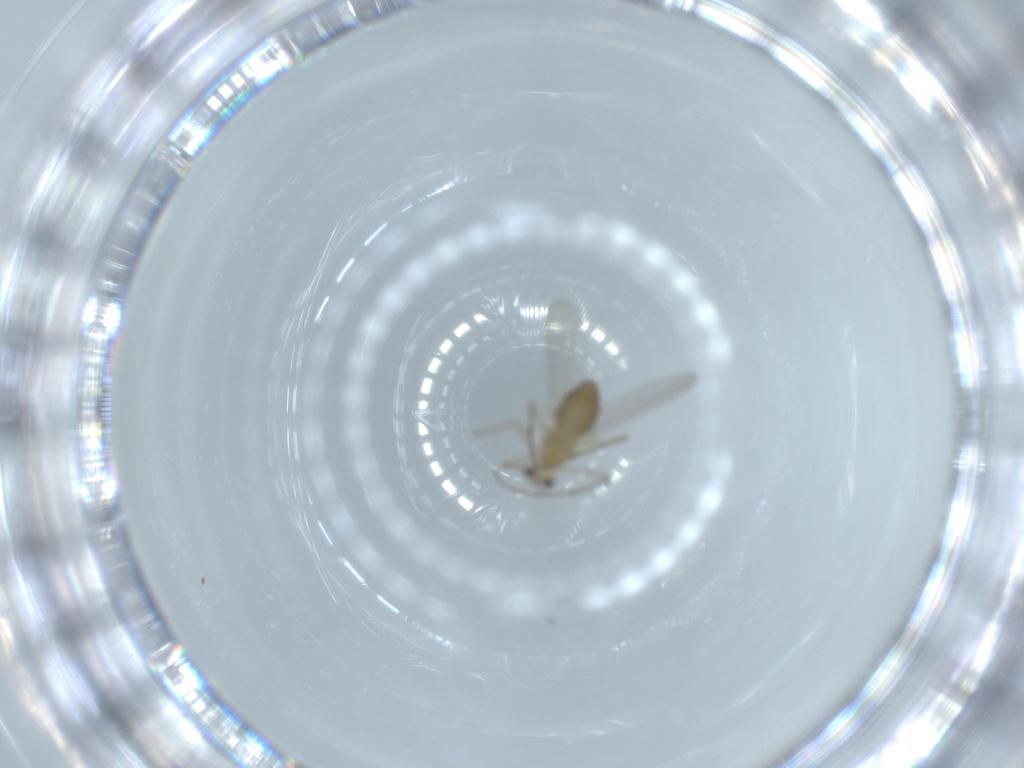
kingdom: Animalia
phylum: Arthropoda
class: Insecta
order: Diptera
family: Chironomidae
